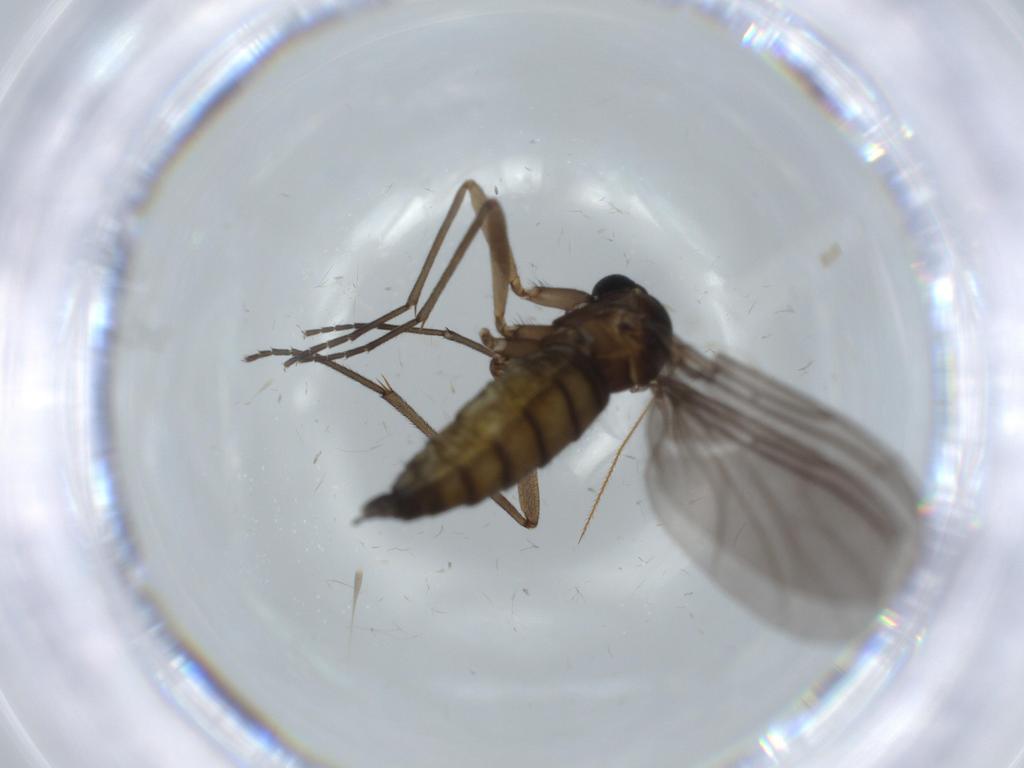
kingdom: Animalia
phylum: Arthropoda
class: Insecta
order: Diptera
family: Sciaridae
